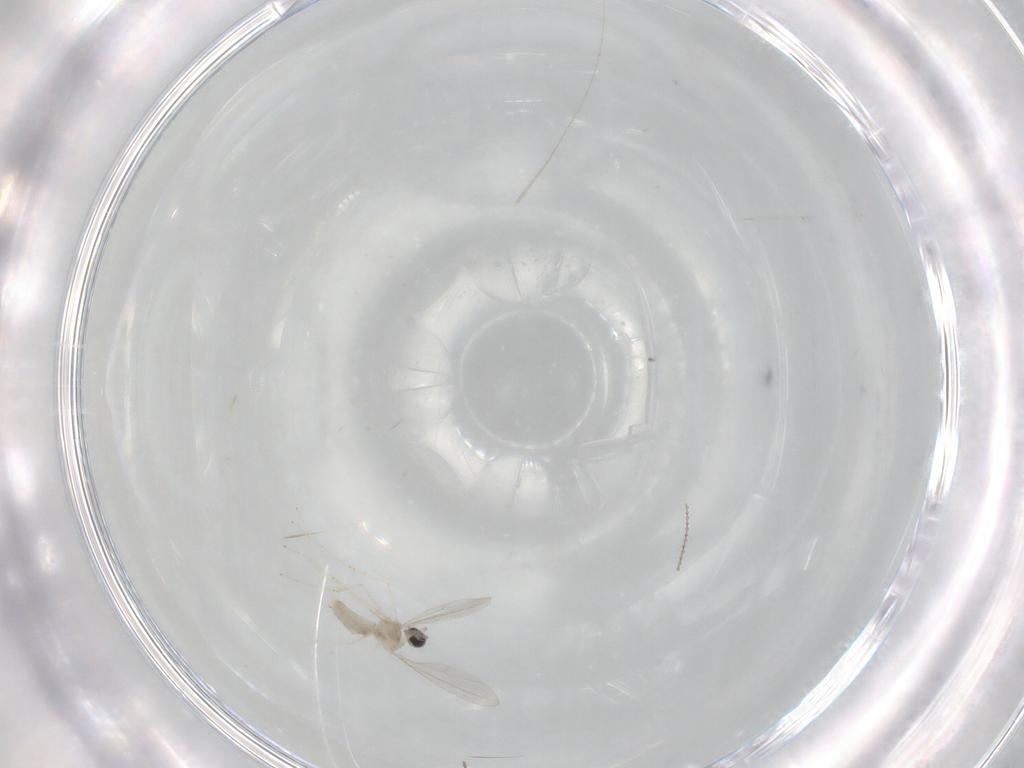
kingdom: Animalia
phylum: Arthropoda
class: Insecta
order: Diptera
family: Cecidomyiidae
